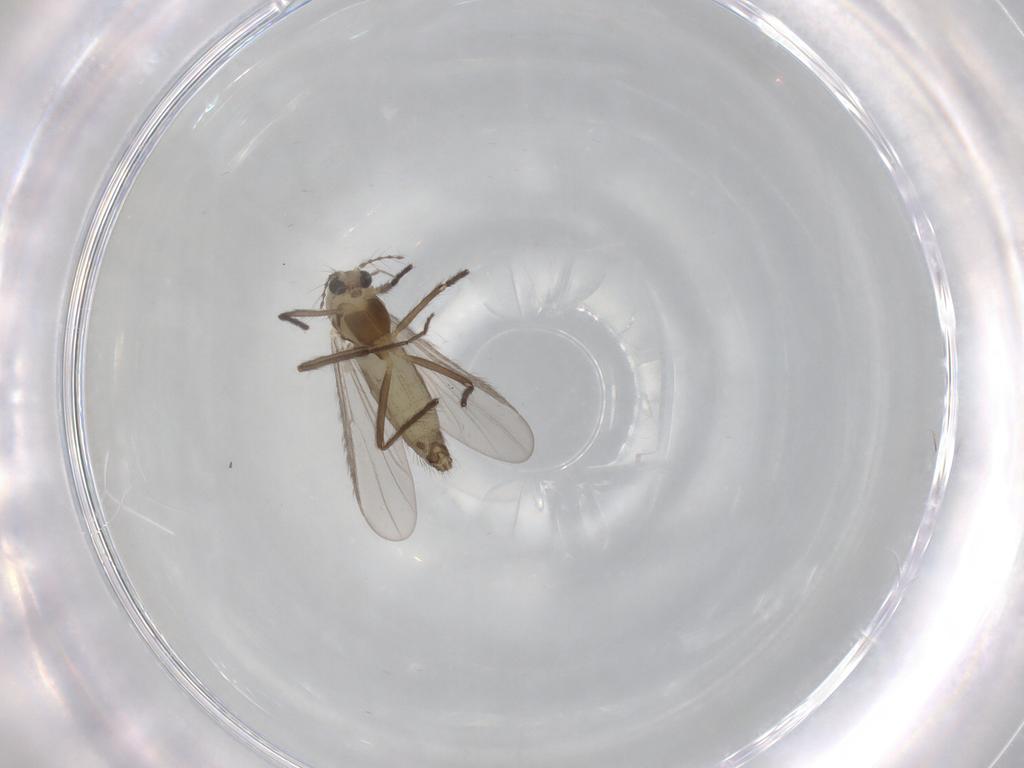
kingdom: Animalia
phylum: Arthropoda
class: Insecta
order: Diptera
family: Chironomidae
